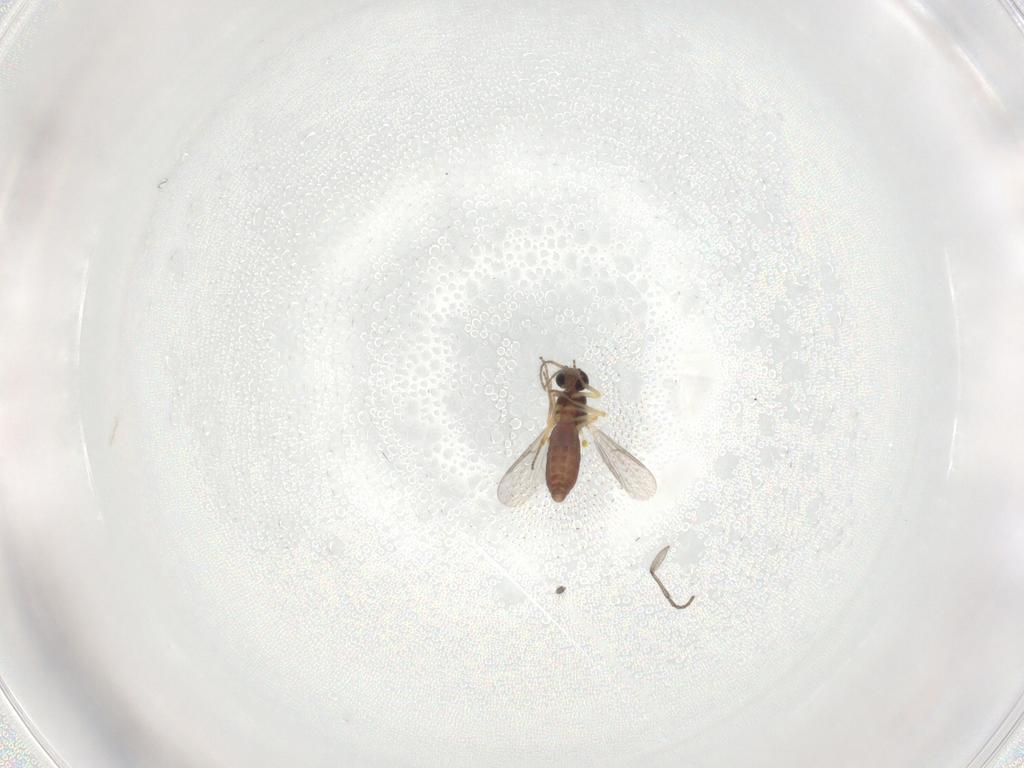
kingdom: Animalia
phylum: Arthropoda
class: Insecta
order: Diptera
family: Ceratopogonidae
